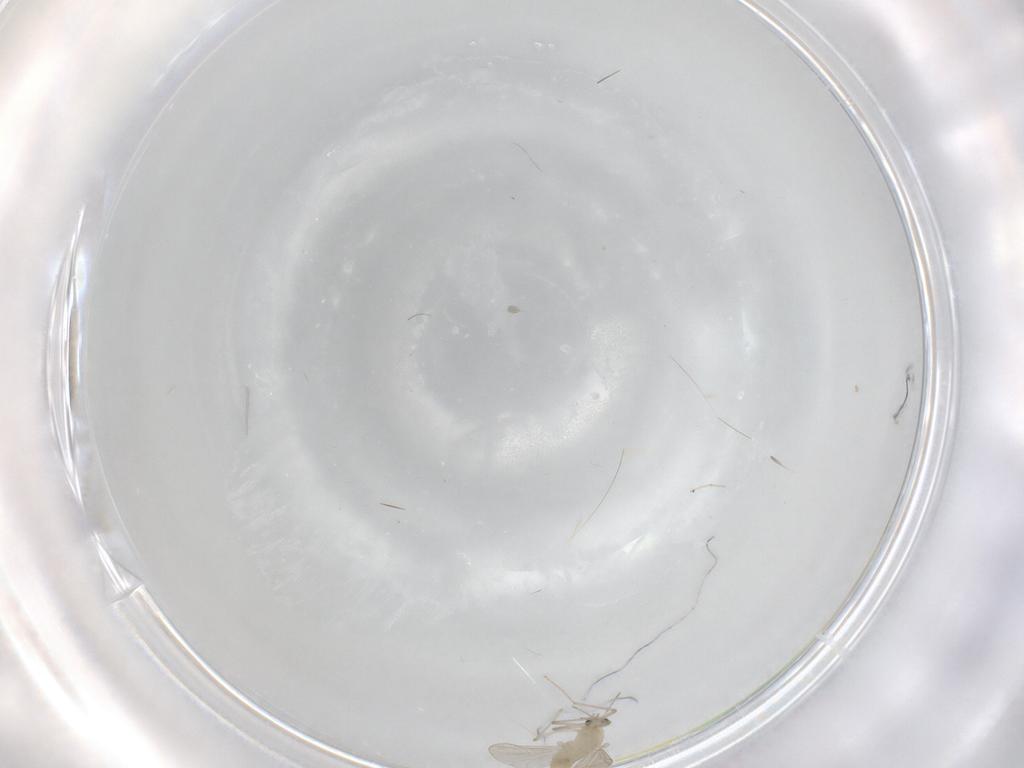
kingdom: Animalia
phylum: Arthropoda
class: Insecta
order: Diptera
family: Chironomidae
